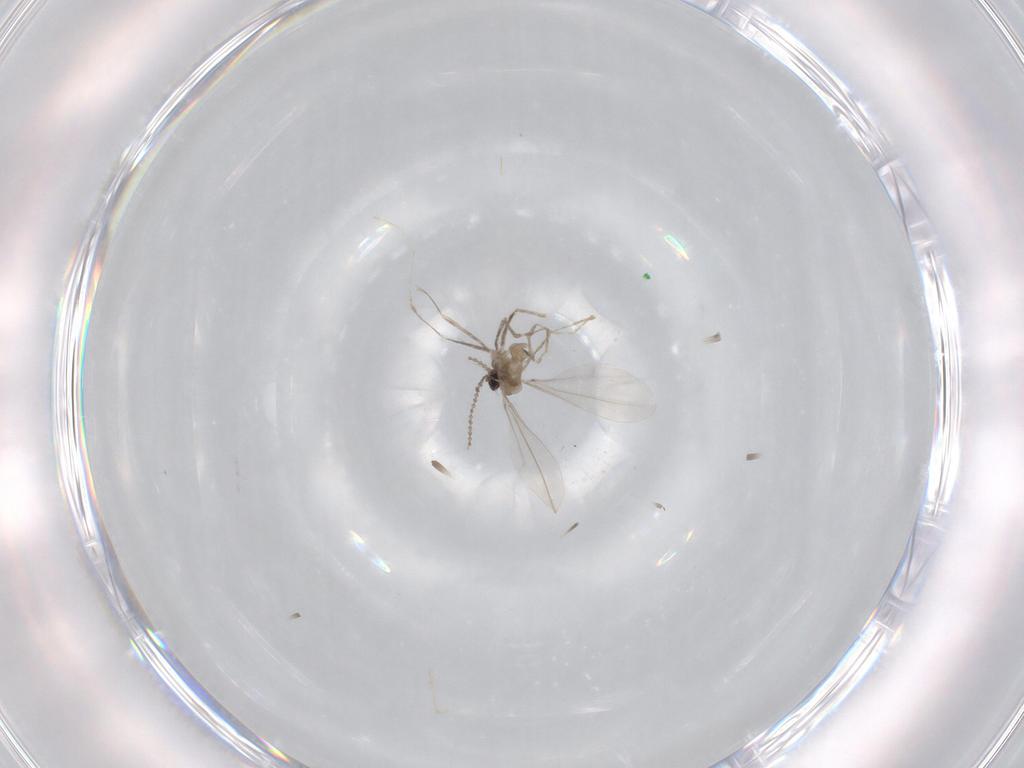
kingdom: Animalia
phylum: Arthropoda
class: Insecta
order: Diptera
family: Cecidomyiidae
